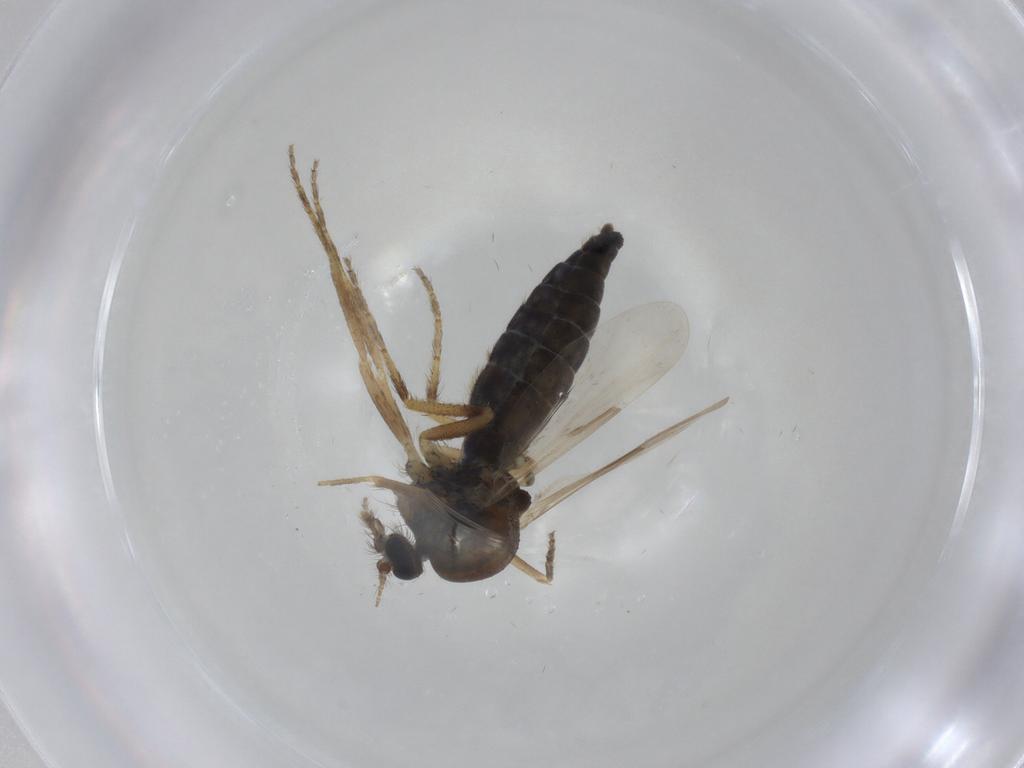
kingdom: Animalia
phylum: Arthropoda
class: Insecta
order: Diptera
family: Ceratopogonidae
